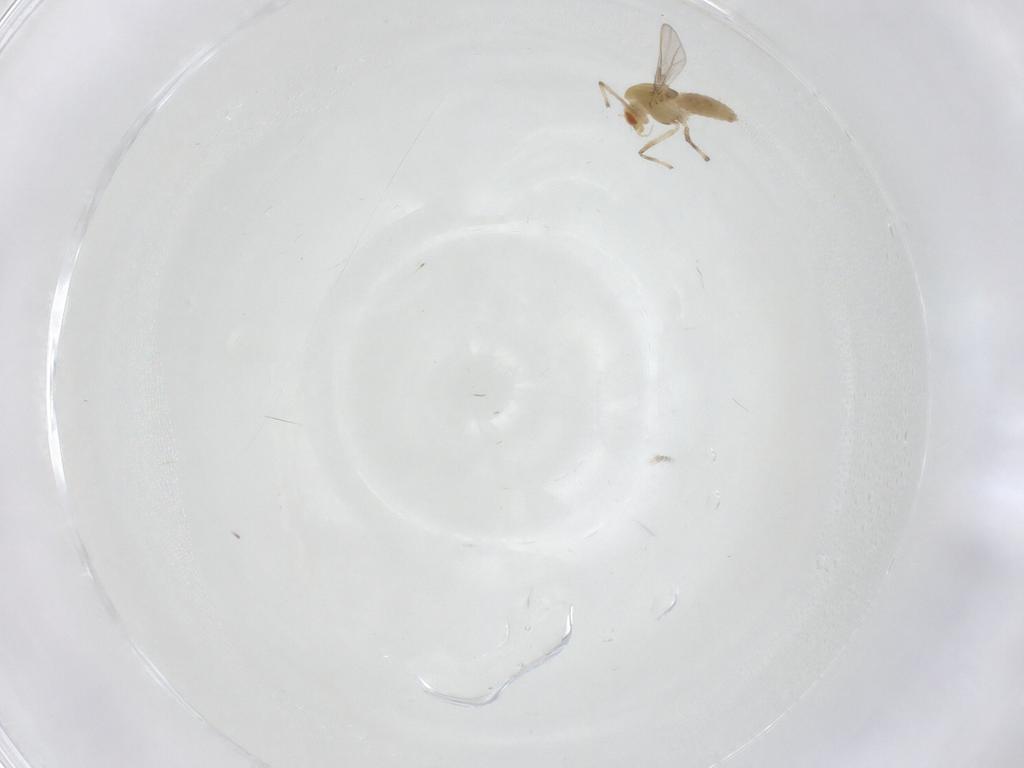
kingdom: Animalia
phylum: Arthropoda
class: Insecta
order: Diptera
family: Chironomidae
